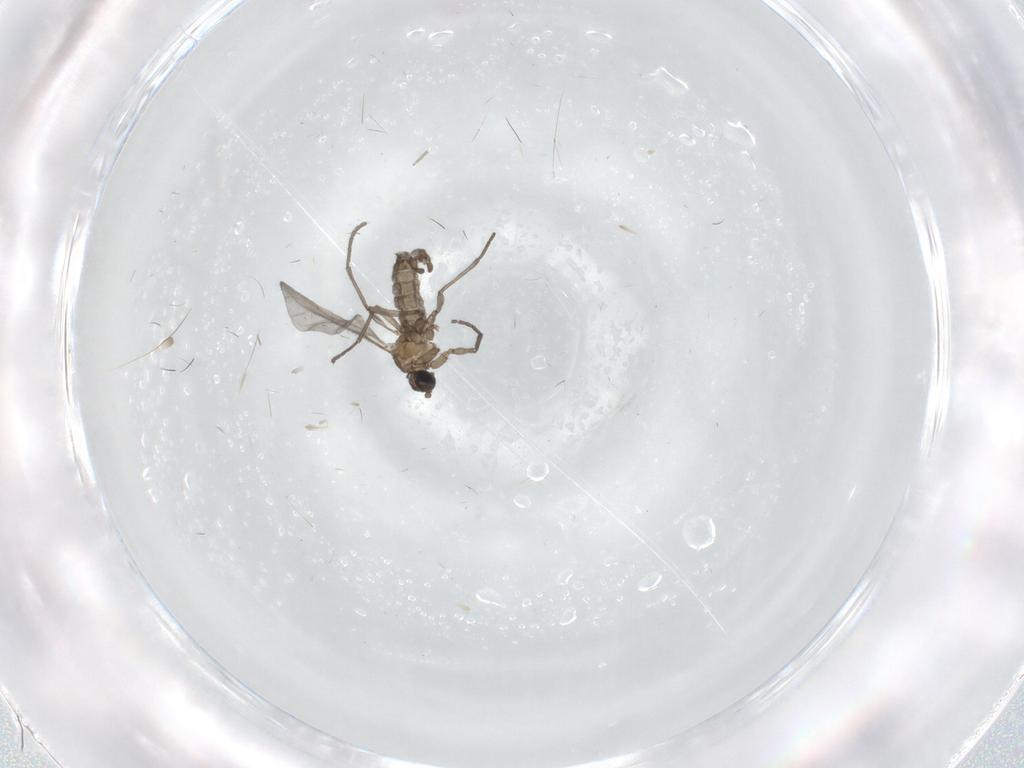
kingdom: Animalia
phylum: Arthropoda
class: Insecta
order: Diptera
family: Sciaridae
